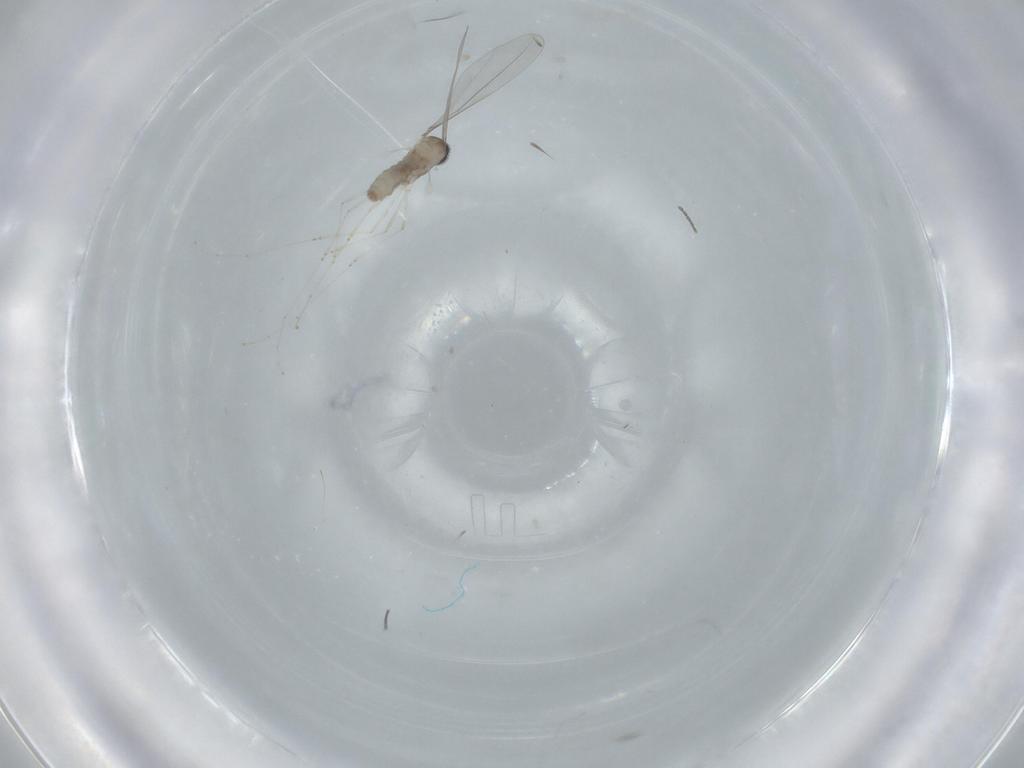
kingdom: Animalia
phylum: Arthropoda
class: Insecta
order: Diptera
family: Cecidomyiidae
